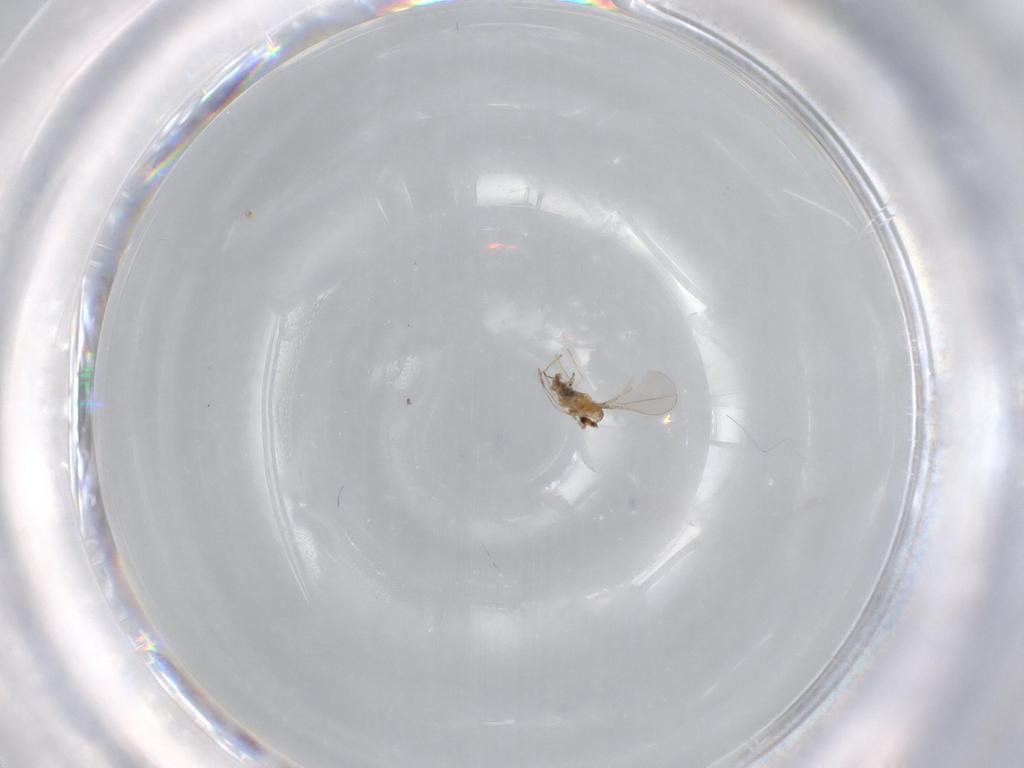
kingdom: Animalia
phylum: Arthropoda
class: Insecta
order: Diptera
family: Cecidomyiidae
